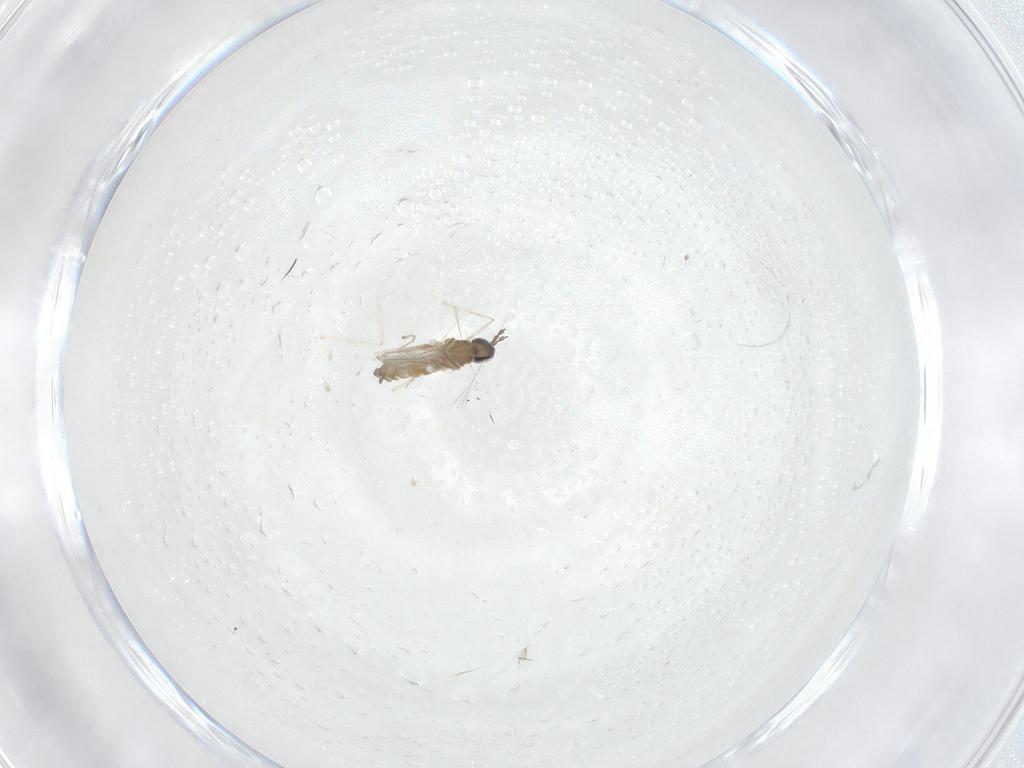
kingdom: Animalia
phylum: Arthropoda
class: Insecta
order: Diptera
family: Cecidomyiidae
